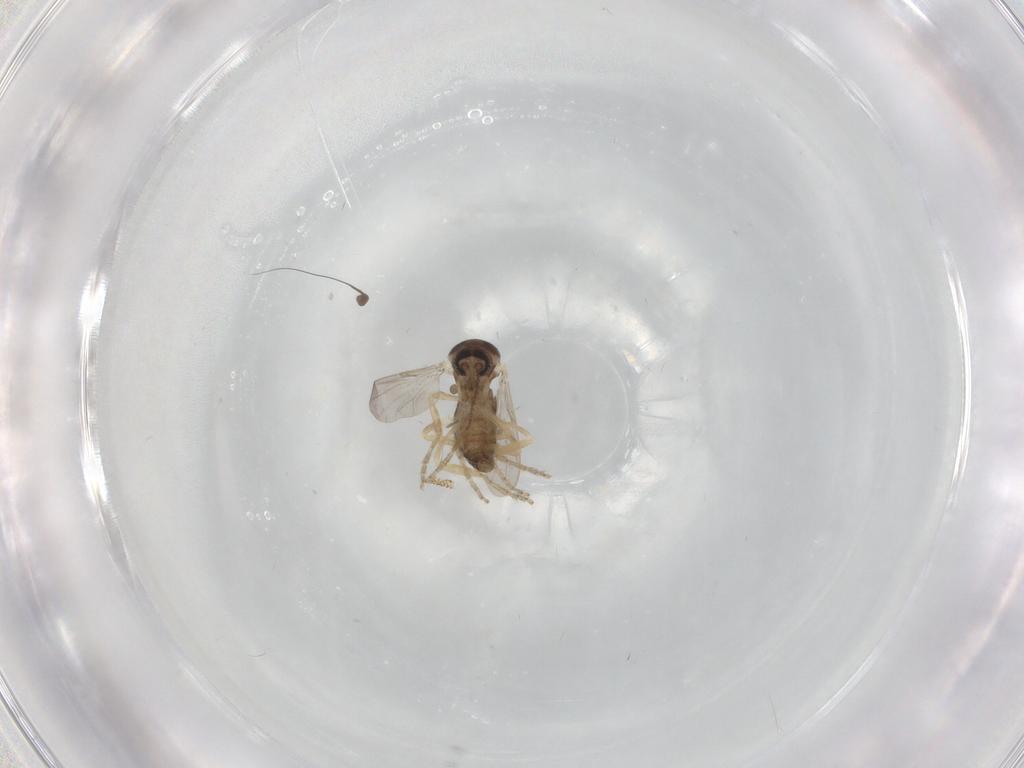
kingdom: Animalia
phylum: Arthropoda
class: Insecta
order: Diptera
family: Ceratopogonidae
